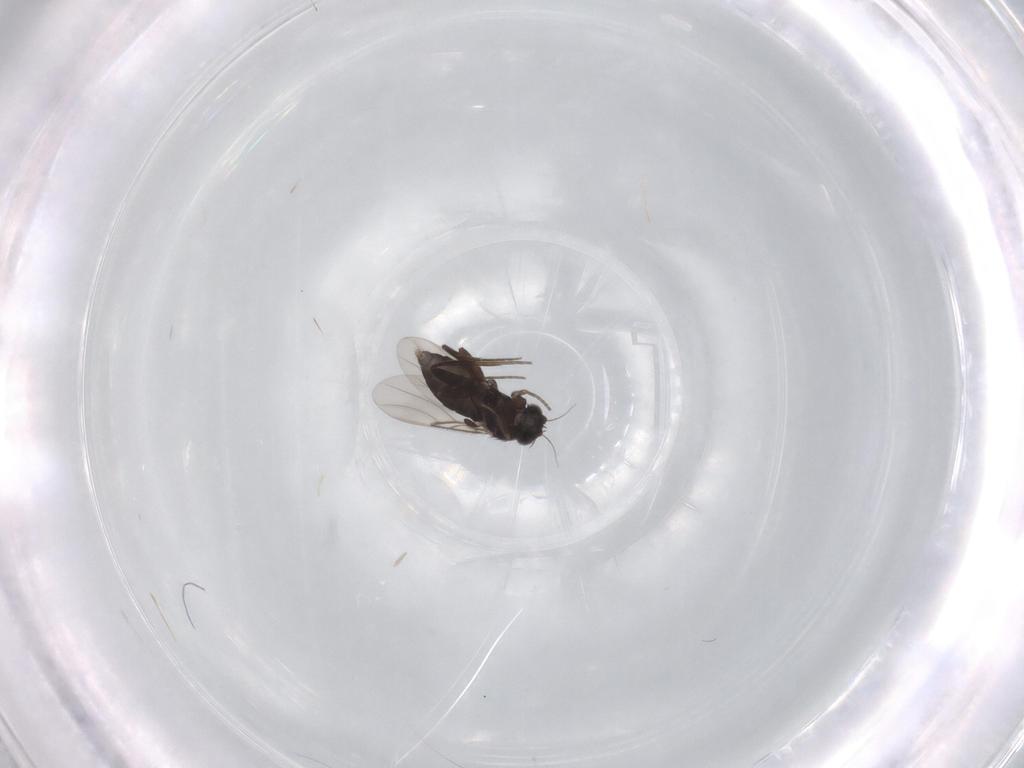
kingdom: Animalia
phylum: Arthropoda
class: Insecta
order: Diptera
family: Phoridae
